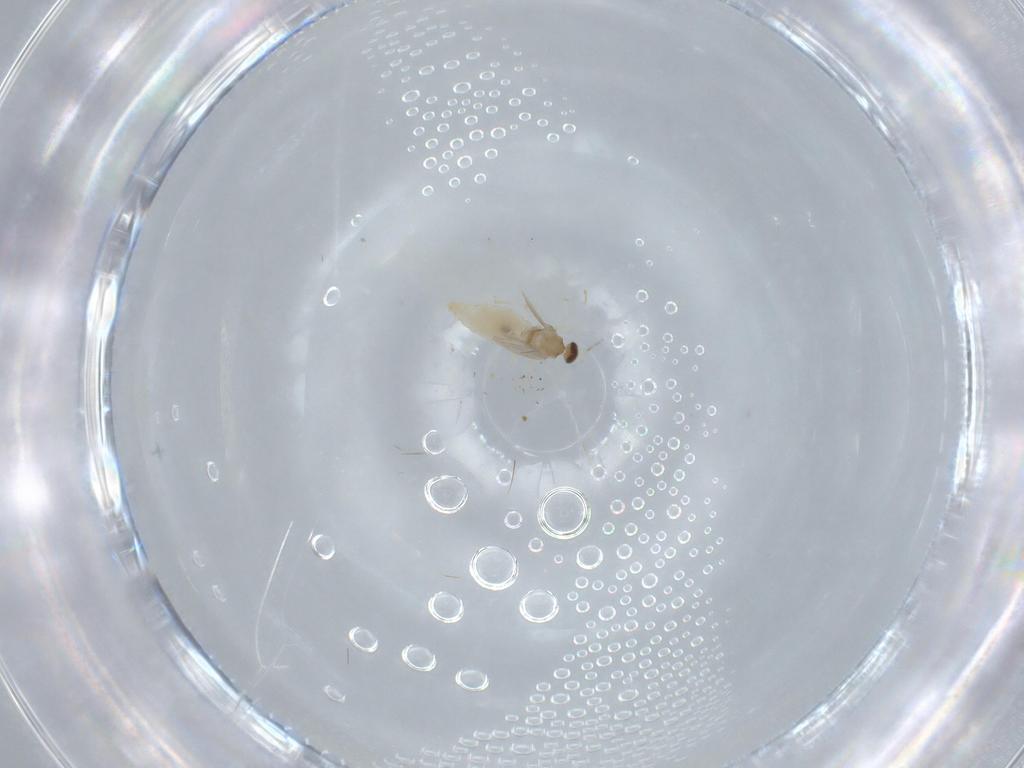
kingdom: Animalia
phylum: Arthropoda
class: Insecta
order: Diptera
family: Cecidomyiidae
